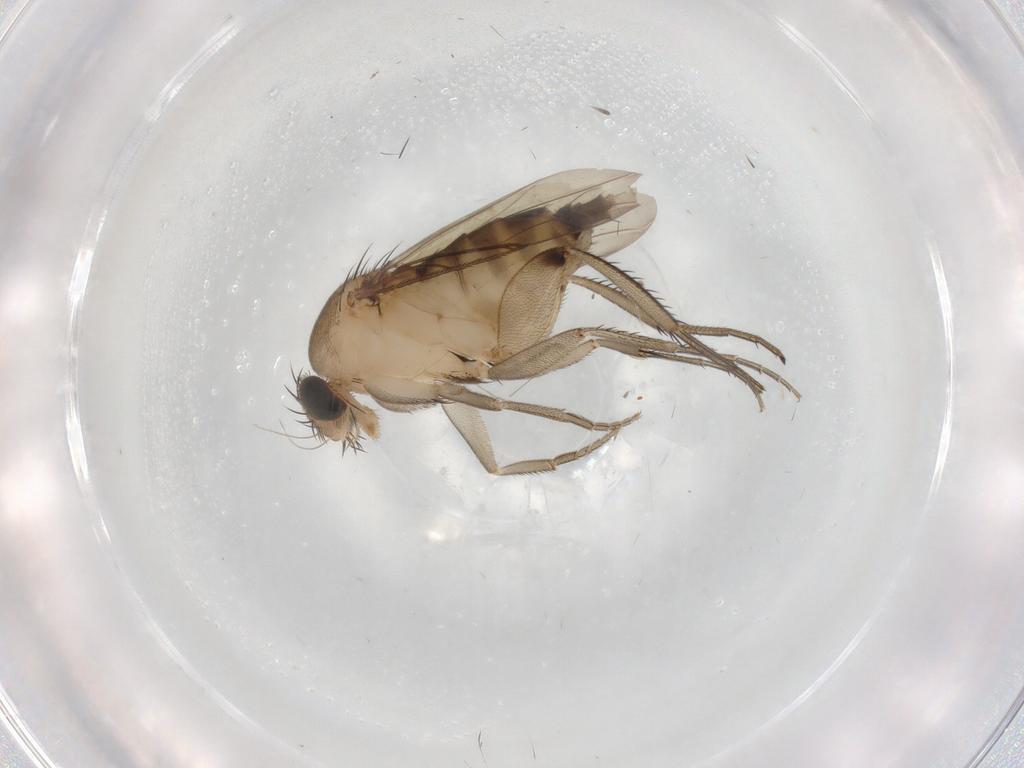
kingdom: Animalia
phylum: Arthropoda
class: Insecta
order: Diptera
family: Phoridae
